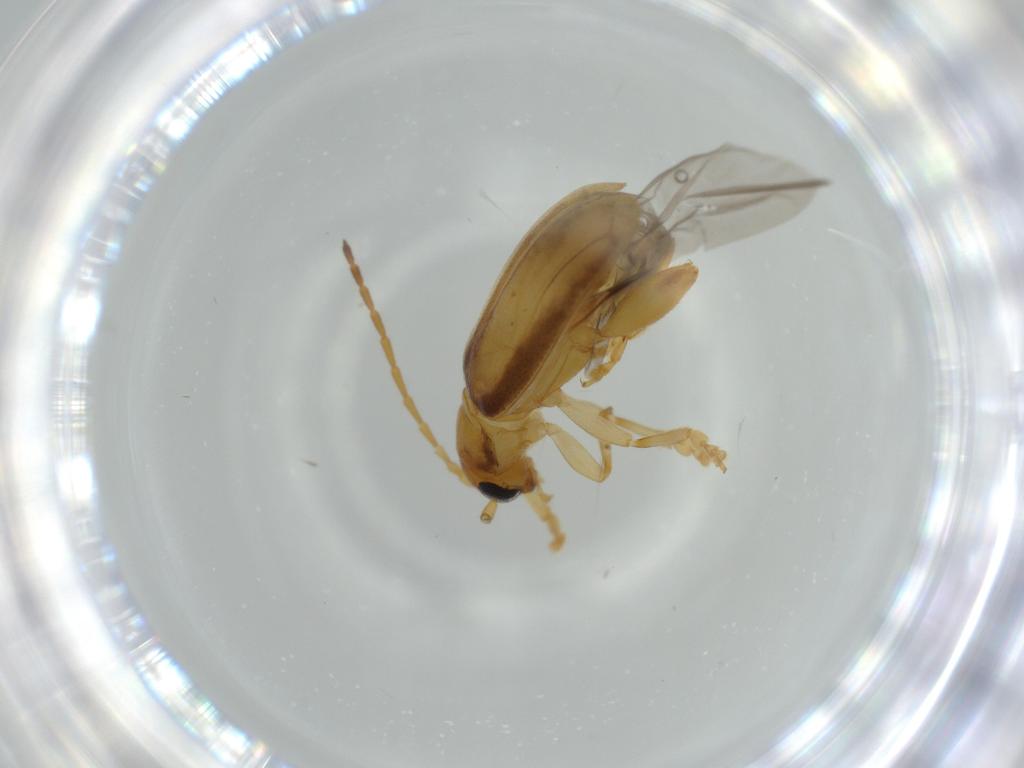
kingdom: Animalia
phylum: Arthropoda
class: Insecta
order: Coleoptera
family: Chrysomelidae
